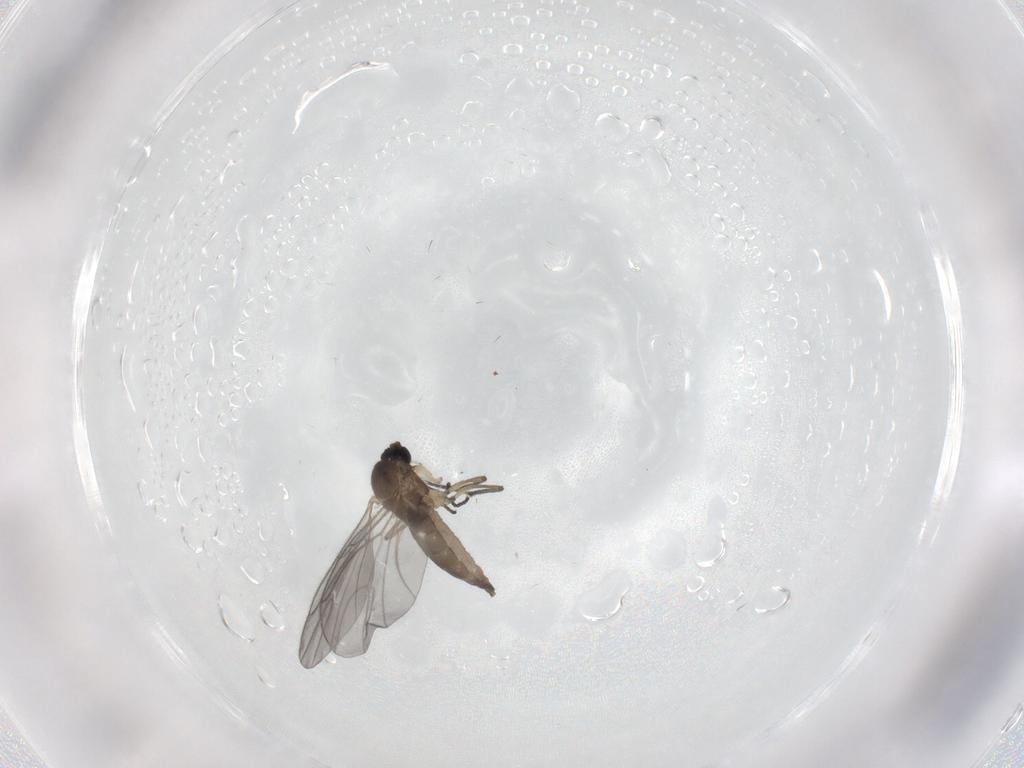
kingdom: Animalia
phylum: Arthropoda
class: Insecta
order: Diptera
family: Sciaridae
